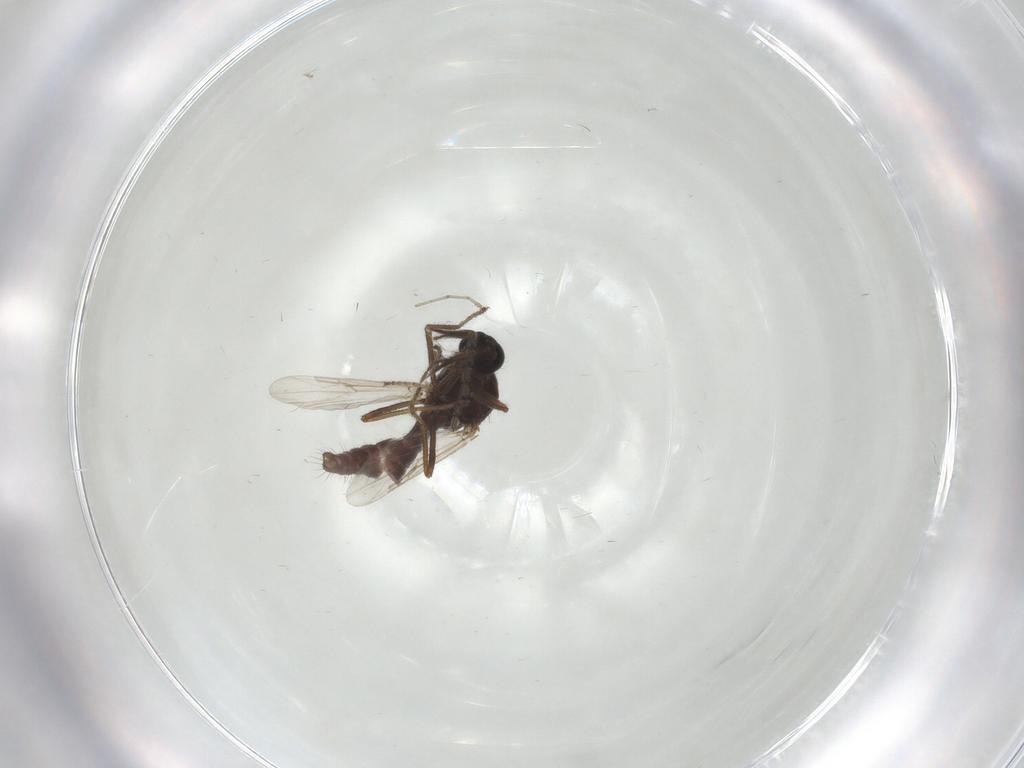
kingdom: Animalia
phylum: Arthropoda
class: Insecta
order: Diptera
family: Ceratopogonidae
